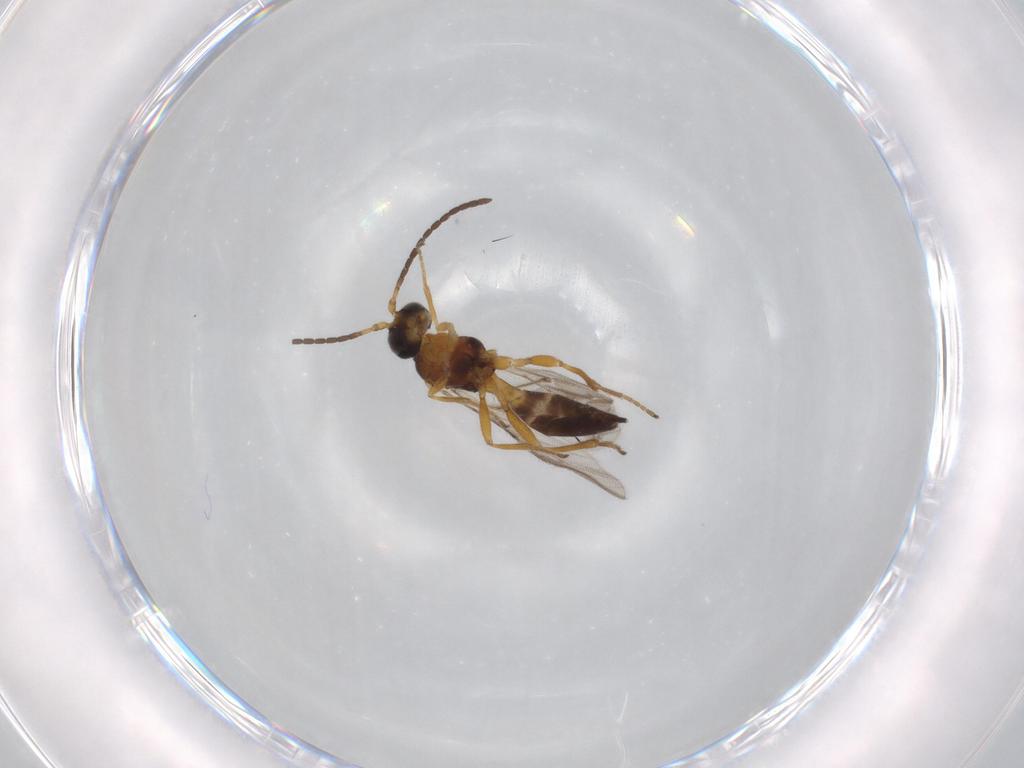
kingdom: Animalia
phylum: Arthropoda
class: Insecta
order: Hymenoptera
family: Braconidae
